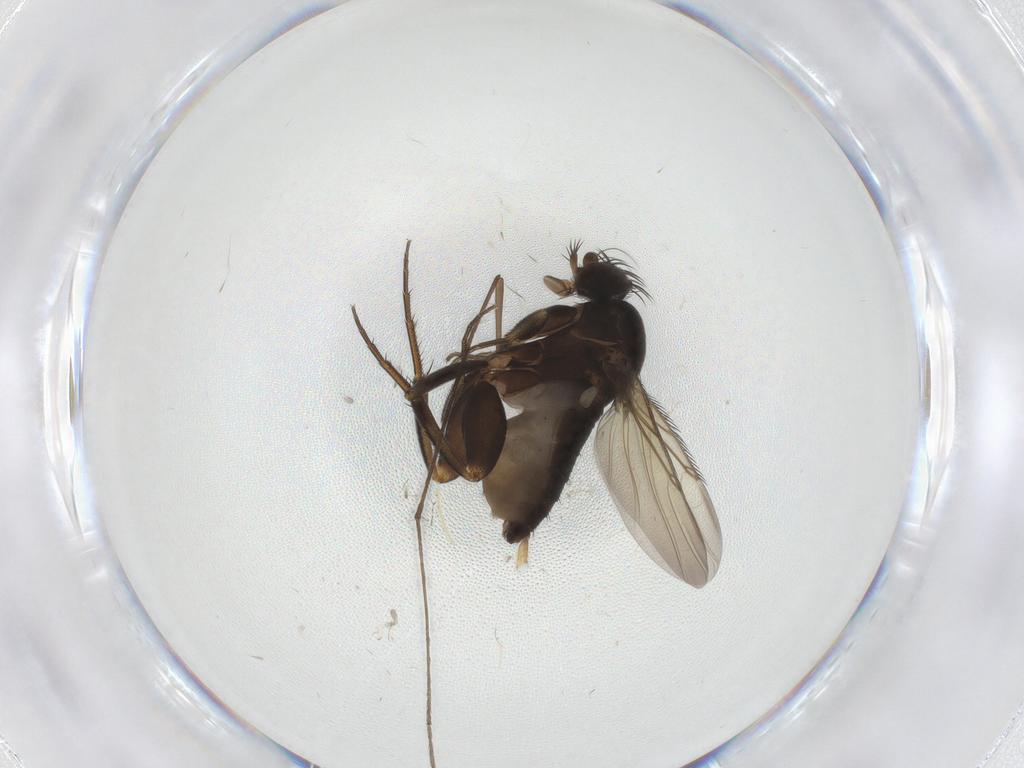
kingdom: Animalia
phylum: Arthropoda
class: Insecta
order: Diptera
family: Phoridae
